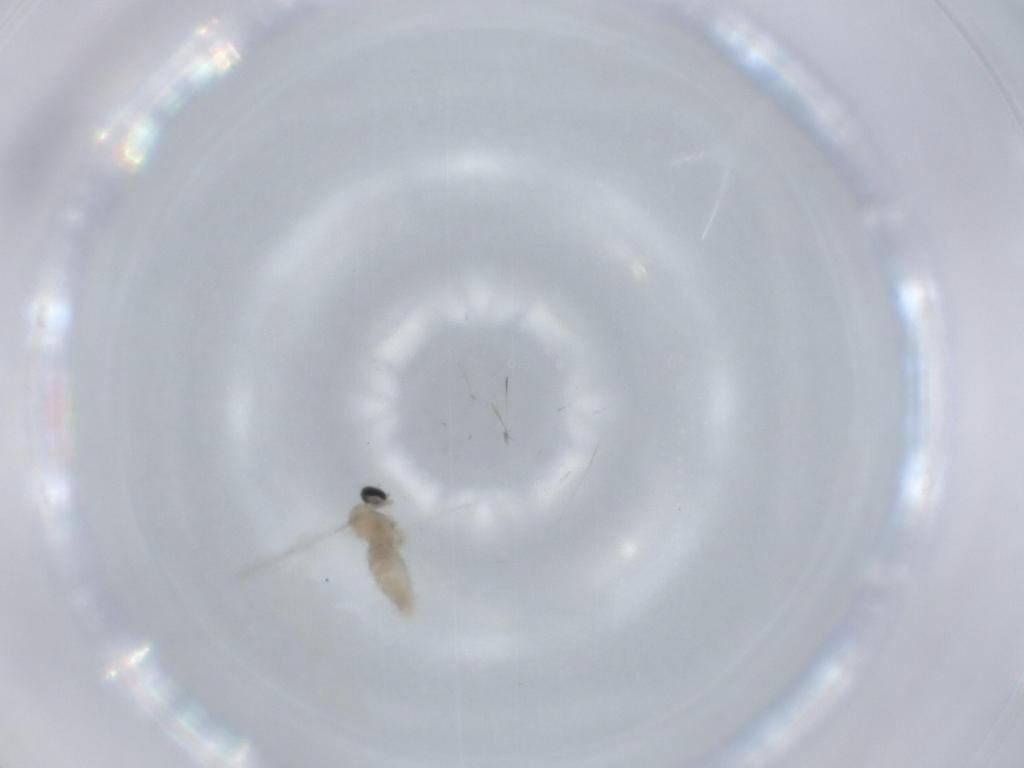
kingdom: Animalia
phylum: Arthropoda
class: Insecta
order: Diptera
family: Cecidomyiidae
